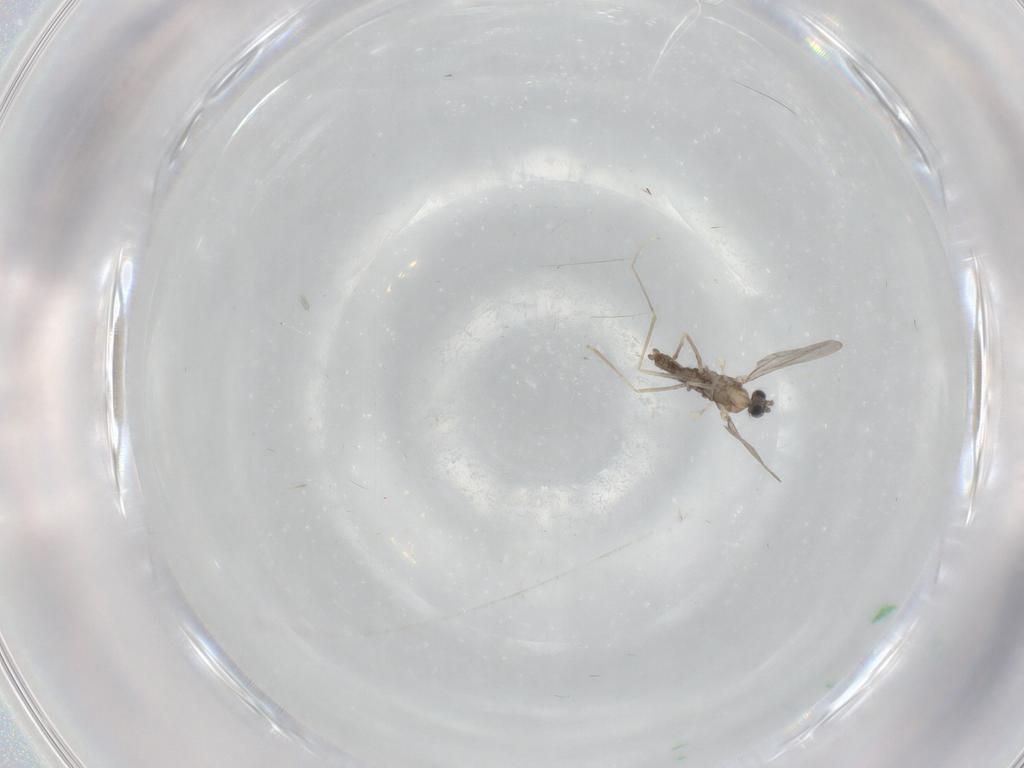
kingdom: Animalia
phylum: Arthropoda
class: Insecta
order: Diptera
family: Cecidomyiidae
